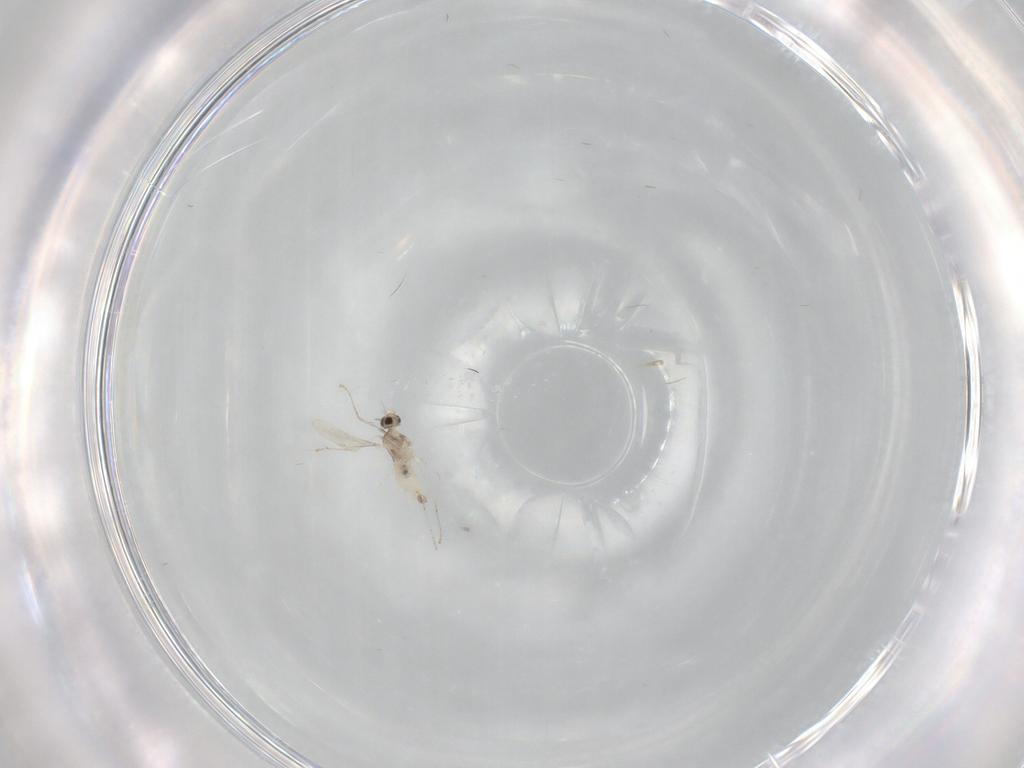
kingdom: Animalia
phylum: Arthropoda
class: Insecta
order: Diptera
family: Cecidomyiidae
